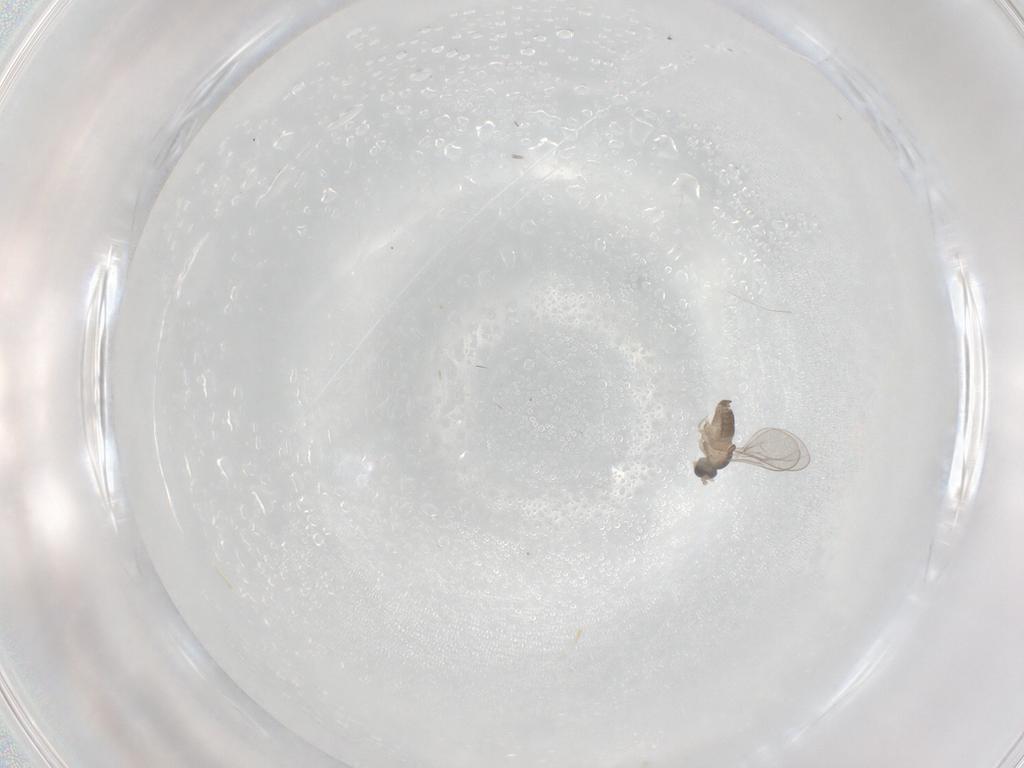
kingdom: Animalia
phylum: Arthropoda
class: Insecta
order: Diptera
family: Cecidomyiidae
